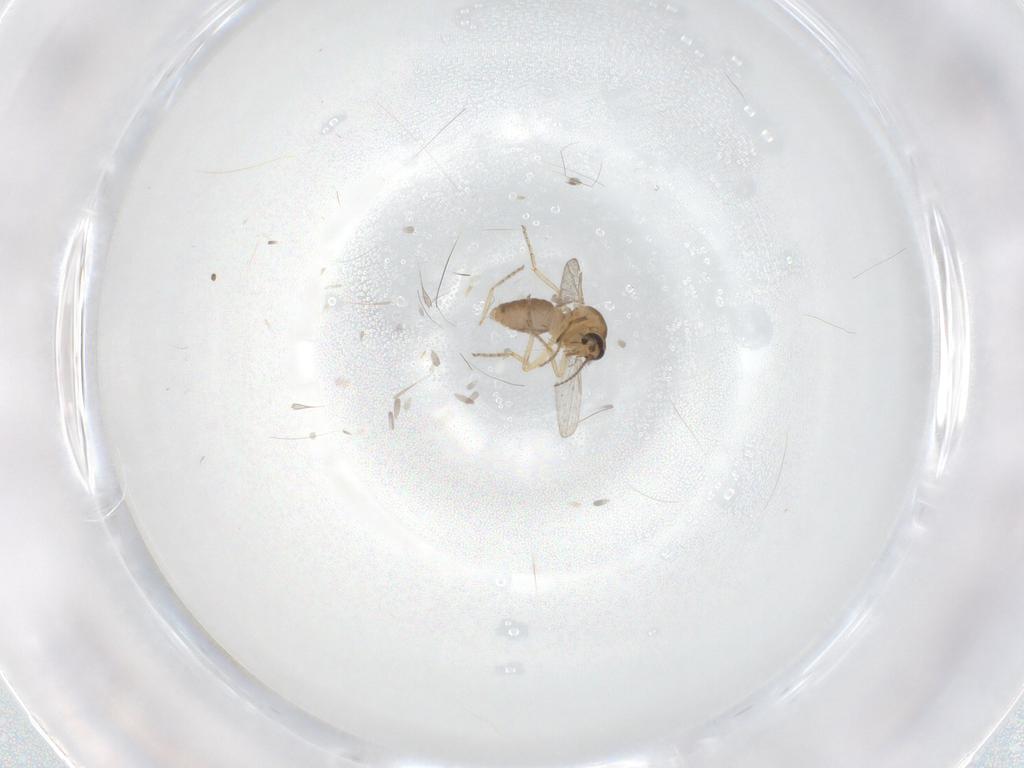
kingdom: Animalia
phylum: Arthropoda
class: Insecta
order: Diptera
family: Ceratopogonidae
